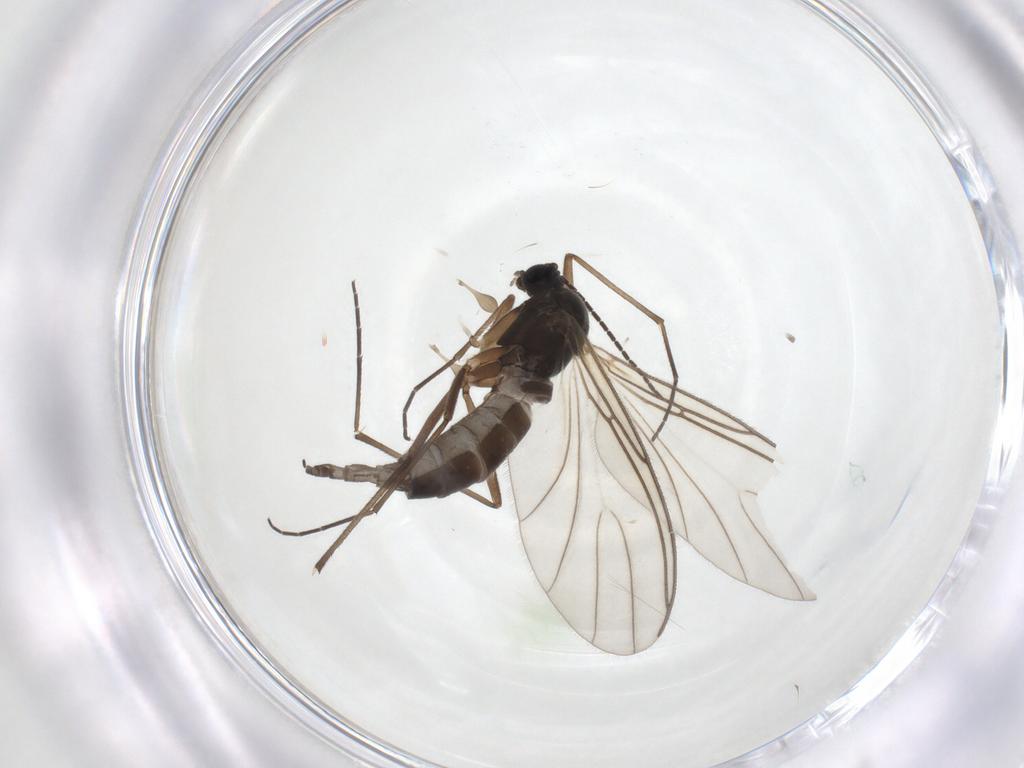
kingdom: Animalia
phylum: Arthropoda
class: Insecta
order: Diptera
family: Sciaridae
